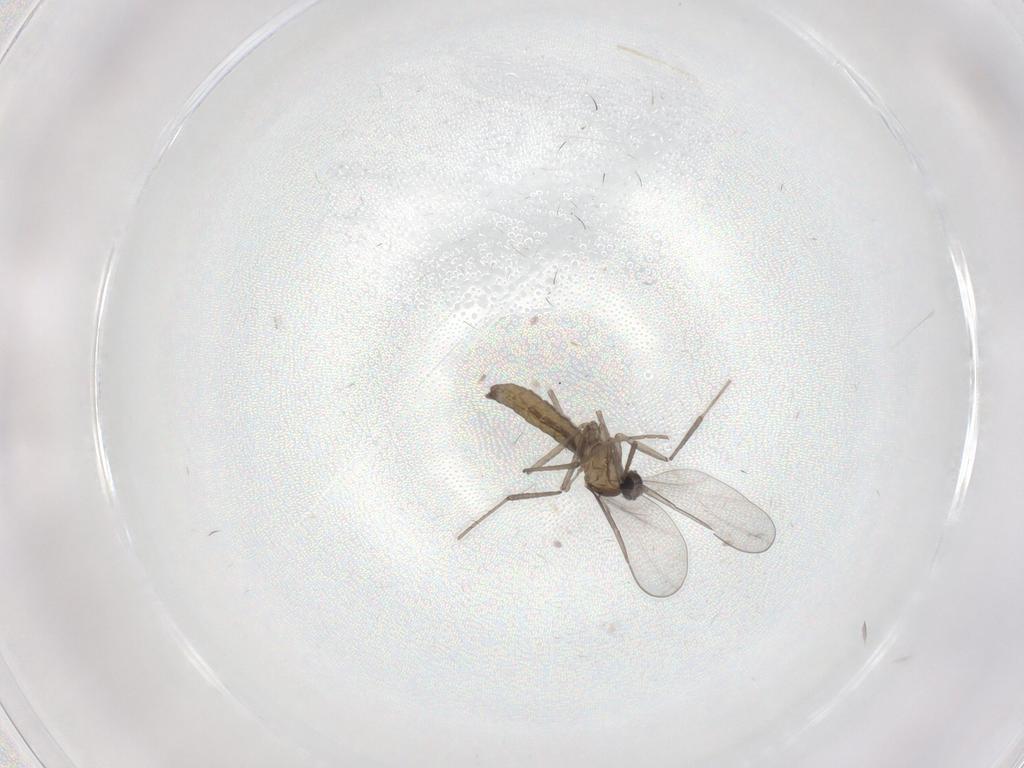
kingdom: Animalia
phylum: Arthropoda
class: Insecta
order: Diptera
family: Cecidomyiidae
